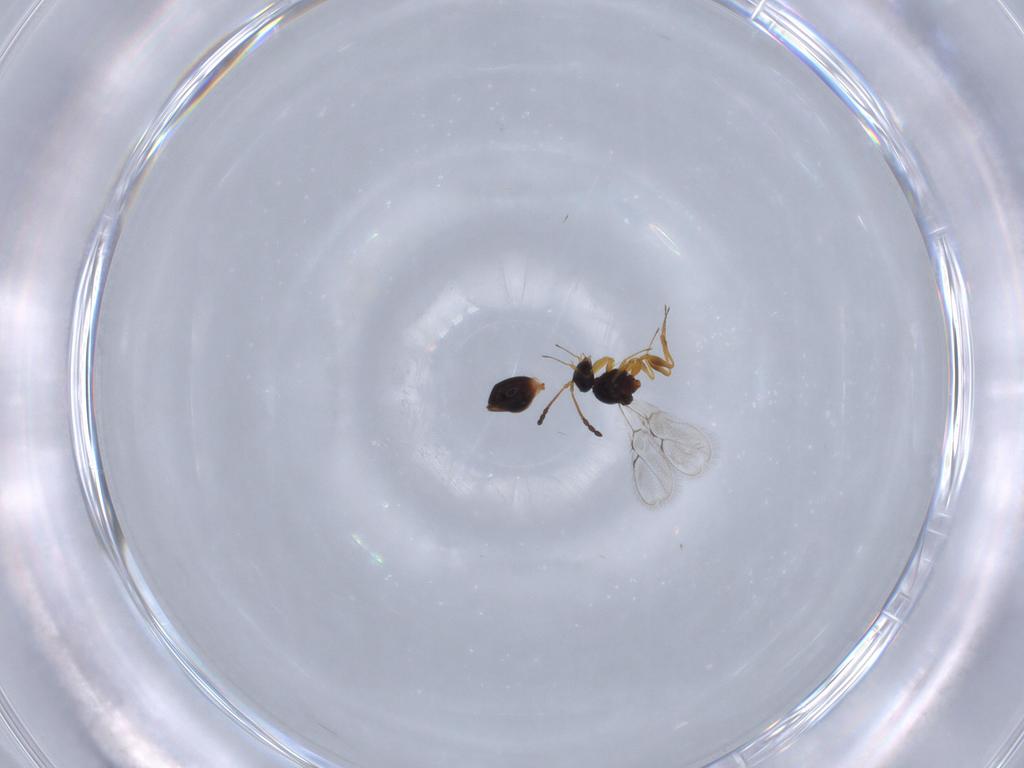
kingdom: Animalia
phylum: Arthropoda
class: Insecta
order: Hymenoptera
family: Figitidae
